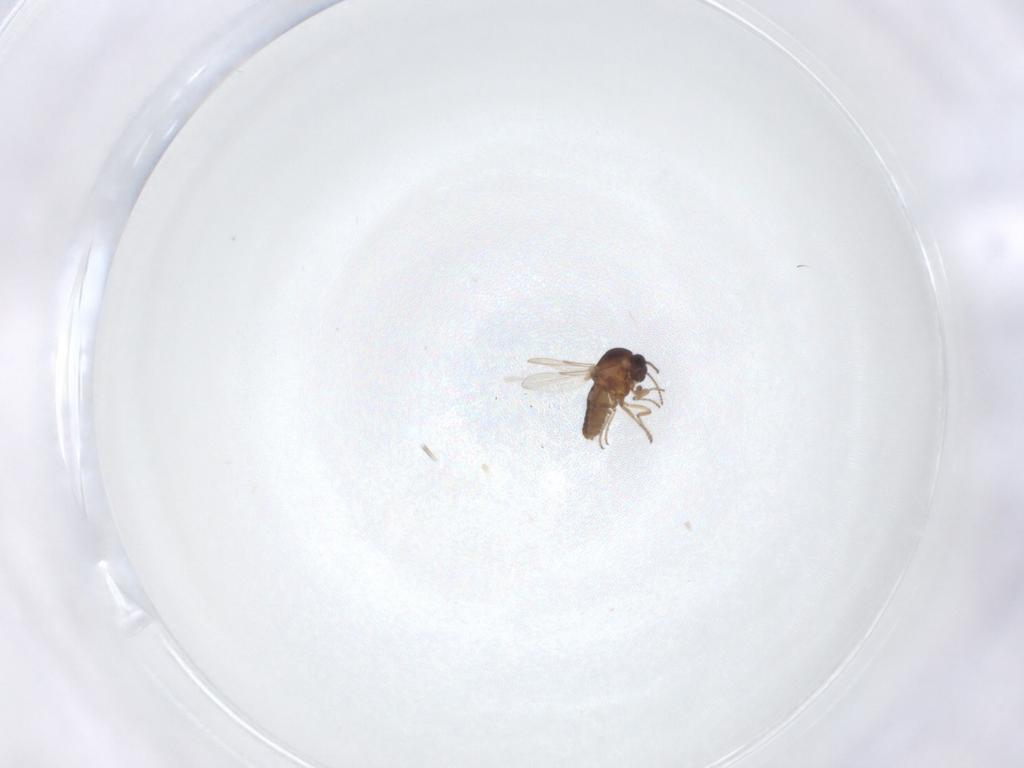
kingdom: Animalia
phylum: Arthropoda
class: Insecta
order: Diptera
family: Ceratopogonidae
